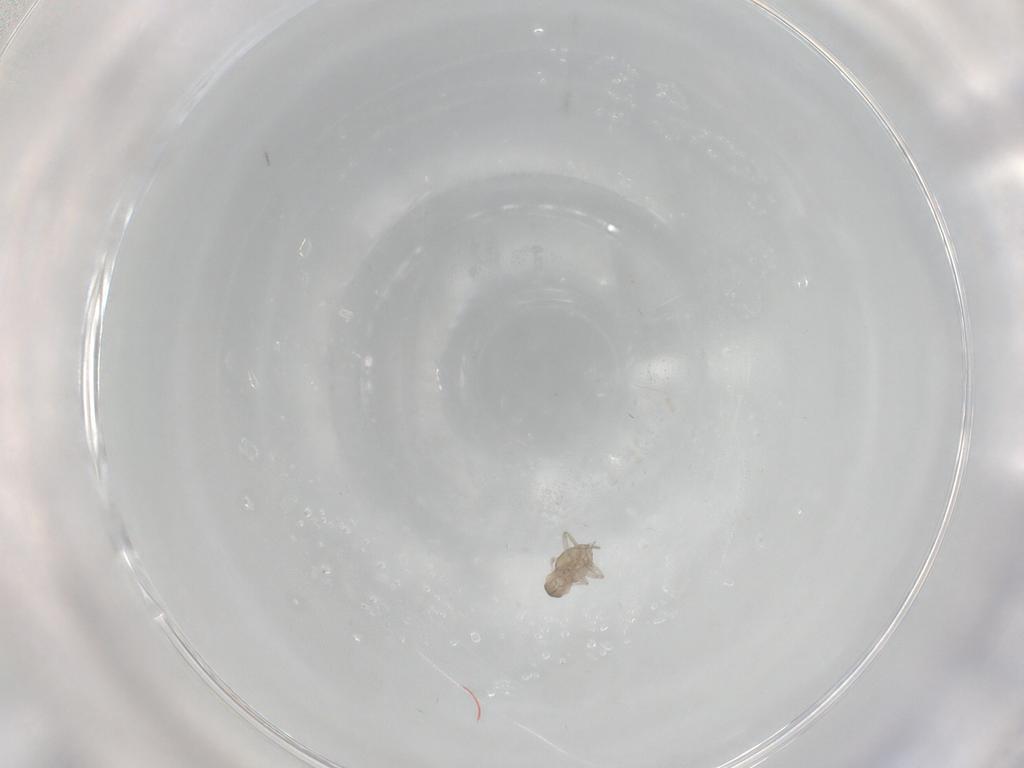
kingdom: Animalia
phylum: Arthropoda
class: Insecta
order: Diptera
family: Cecidomyiidae
